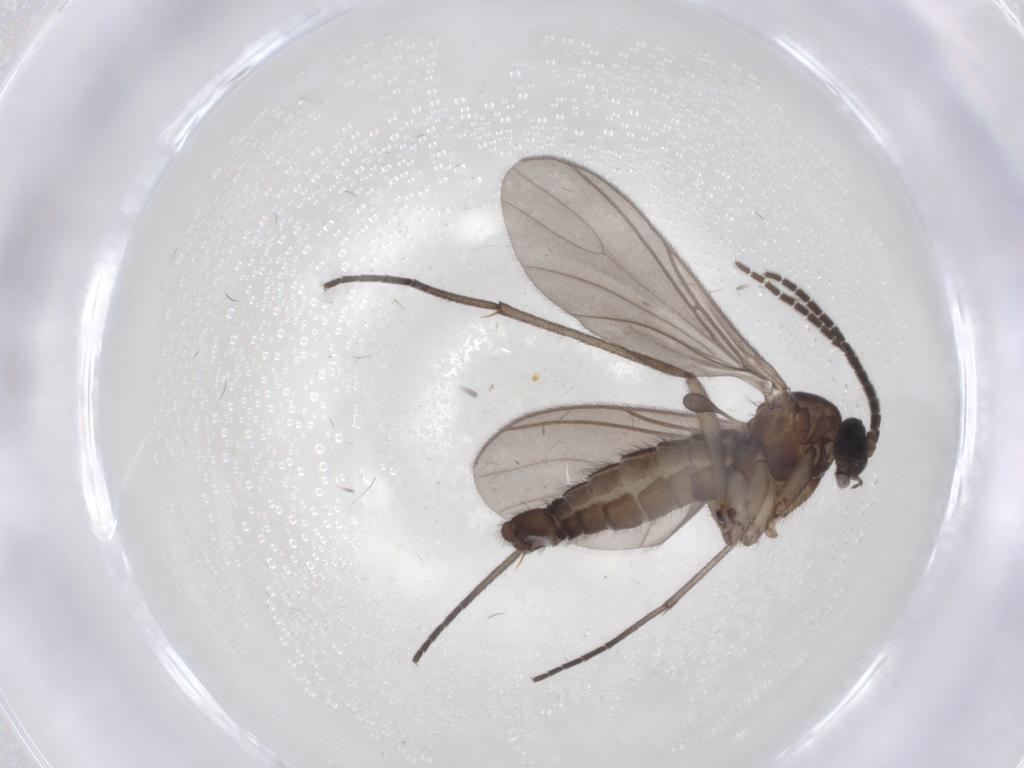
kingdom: Animalia
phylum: Arthropoda
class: Insecta
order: Diptera
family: Sciaridae
